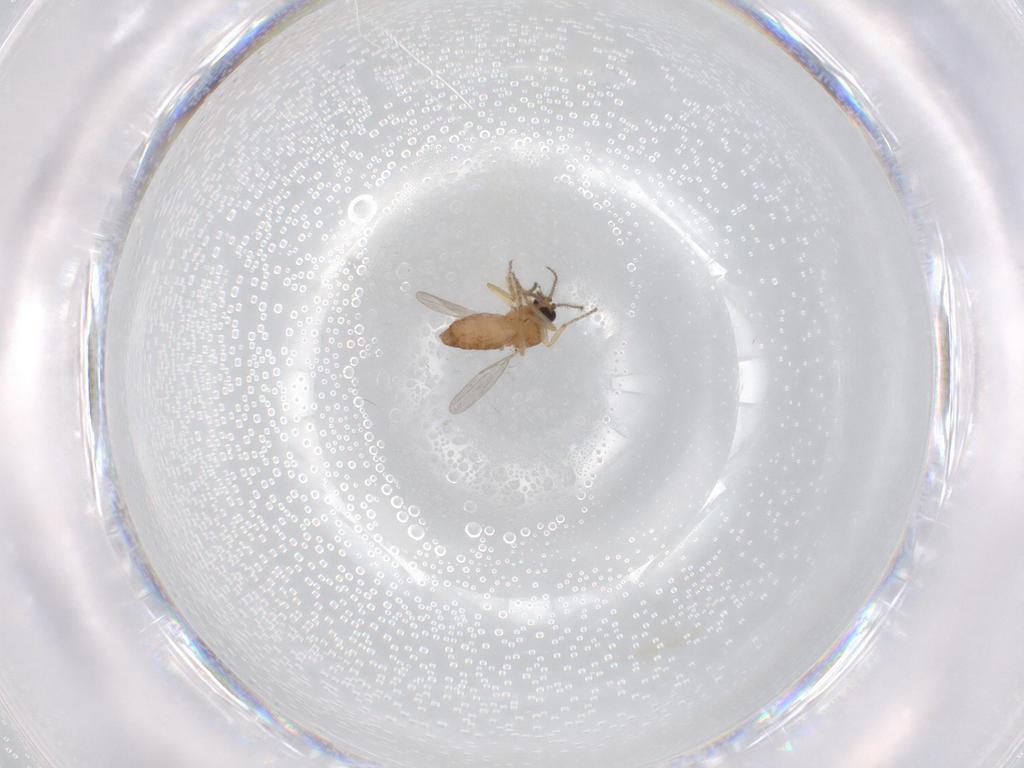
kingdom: Animalia
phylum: Arthropoda
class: Insecta
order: Diptera
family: Ceratopogonidae
